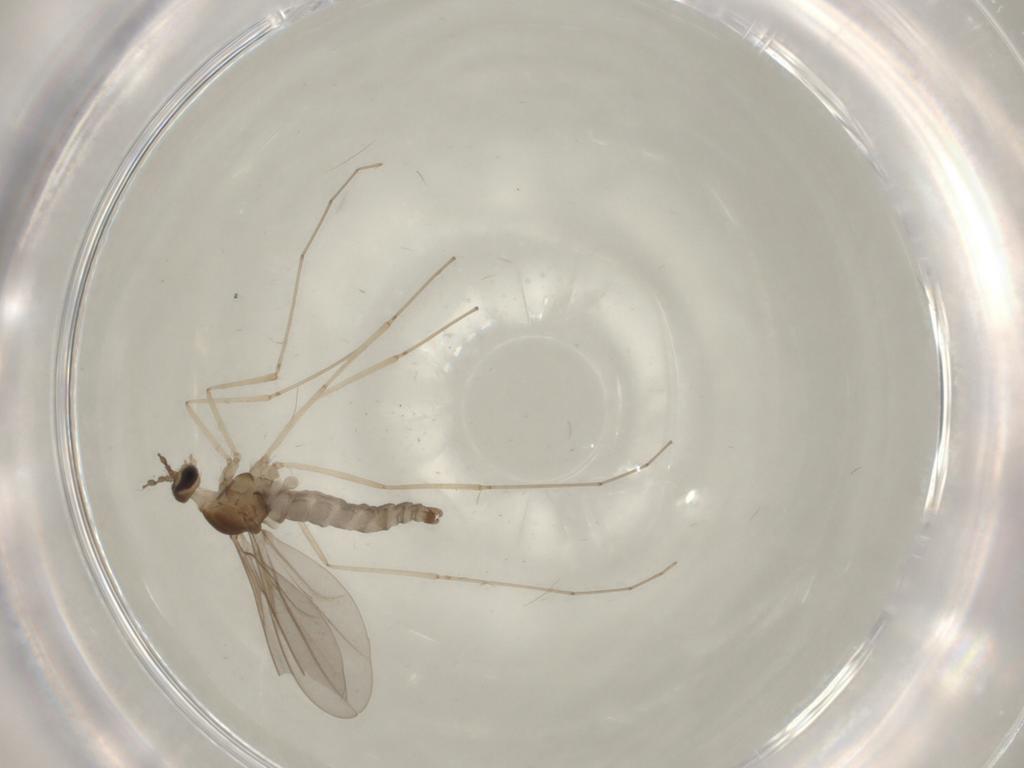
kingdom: Animalia
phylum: Arthropoda
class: Insecta
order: Diptera
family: Cecidomyiidae
